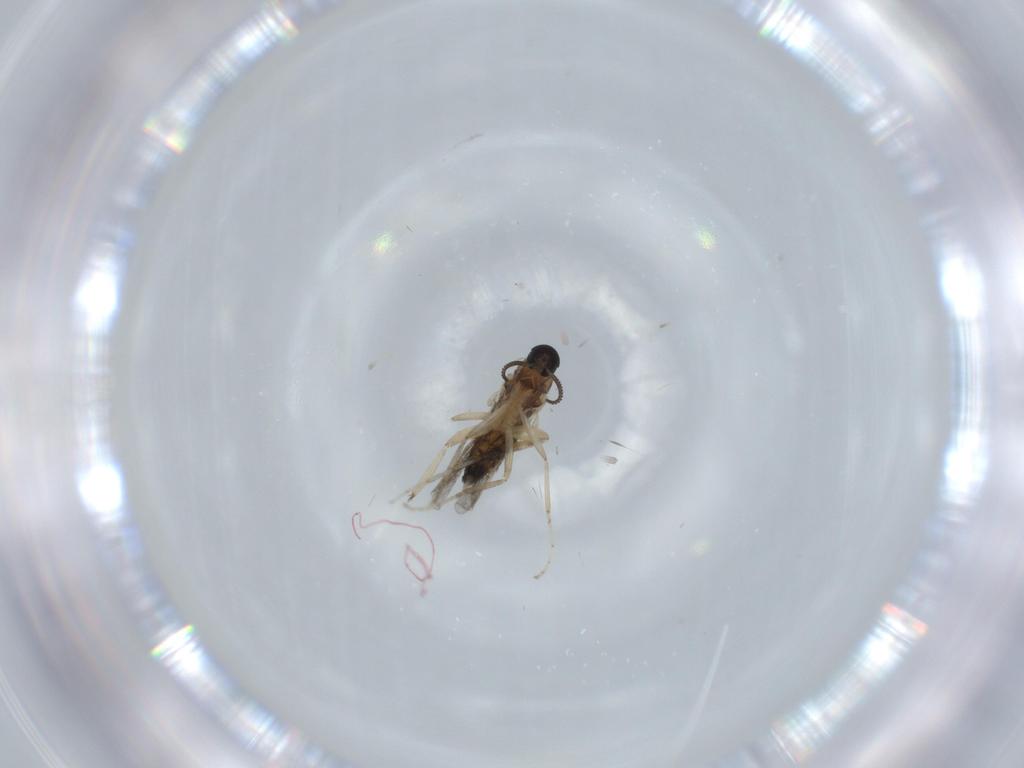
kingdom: Animalia
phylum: Arthropoda
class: Insecta
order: Diptera
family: Cecidomyiidae
